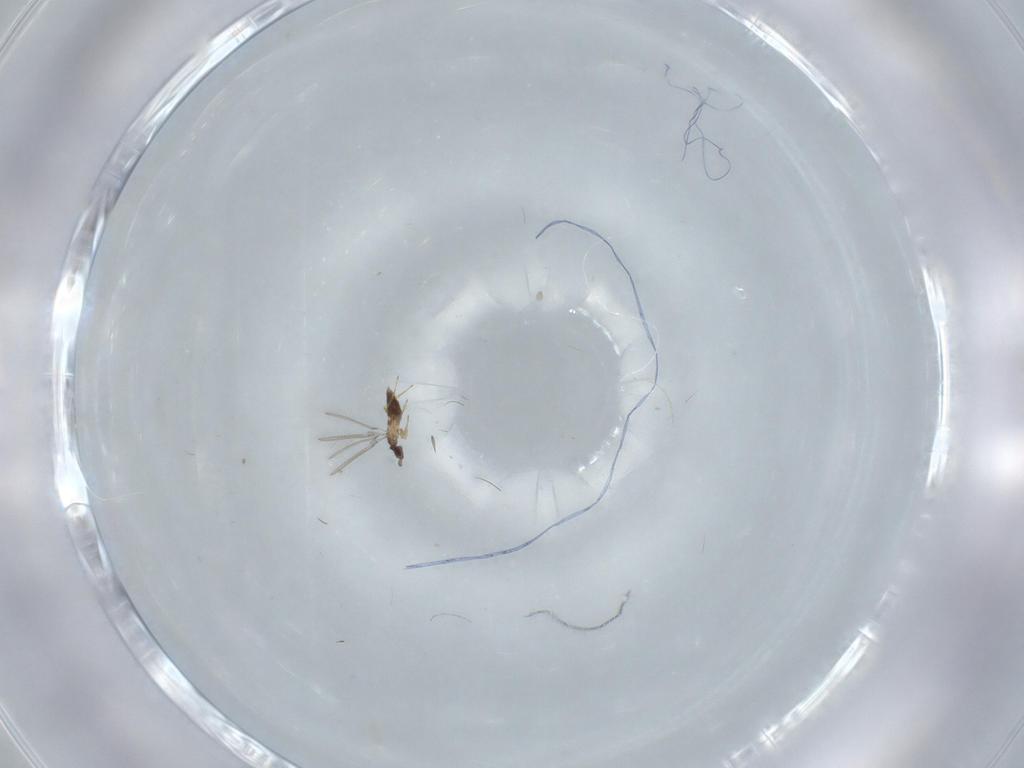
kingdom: Animalia
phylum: Arthropoda
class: Insecta
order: Hymenoptera
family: Mymaridae
